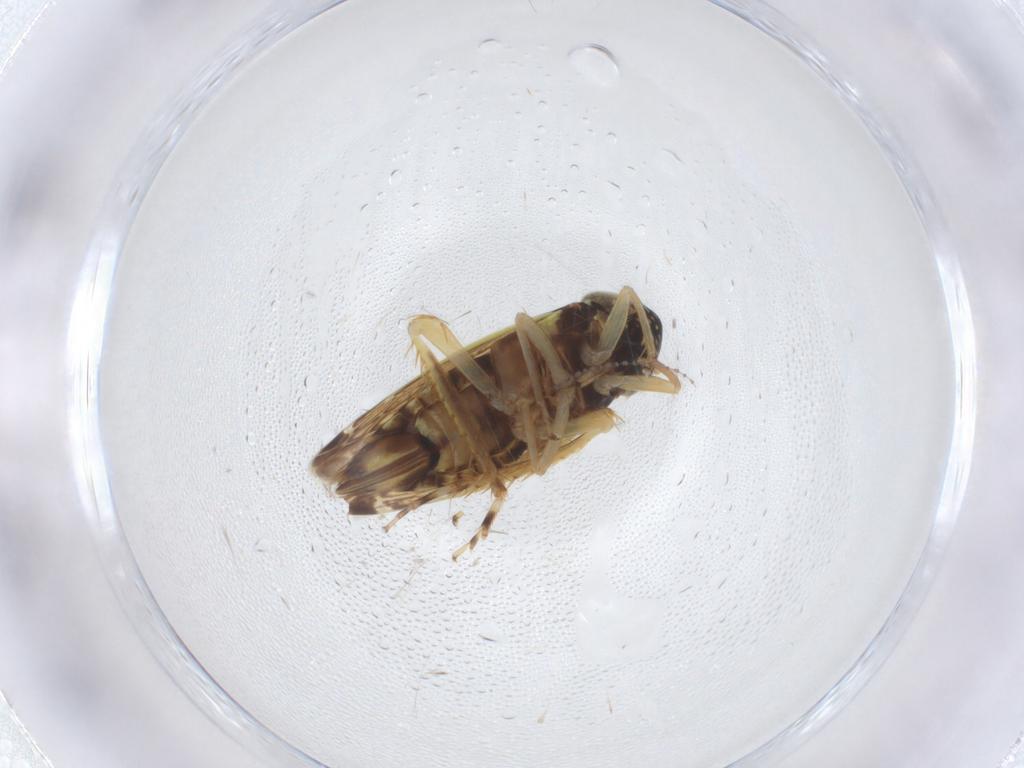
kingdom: Animalia
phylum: Arthropoda
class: Insecta
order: Hemiptera
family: Cicadellidae
